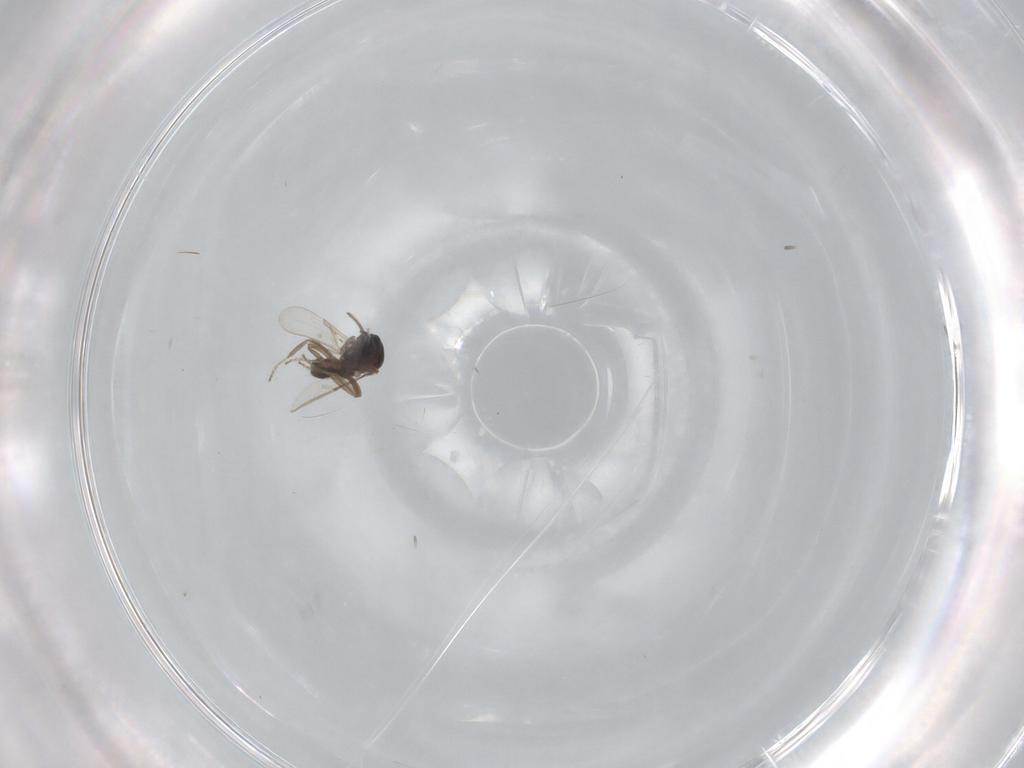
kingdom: Animalia
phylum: Arthropoda
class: Insecta
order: Diptera
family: Ceratopogonidae
